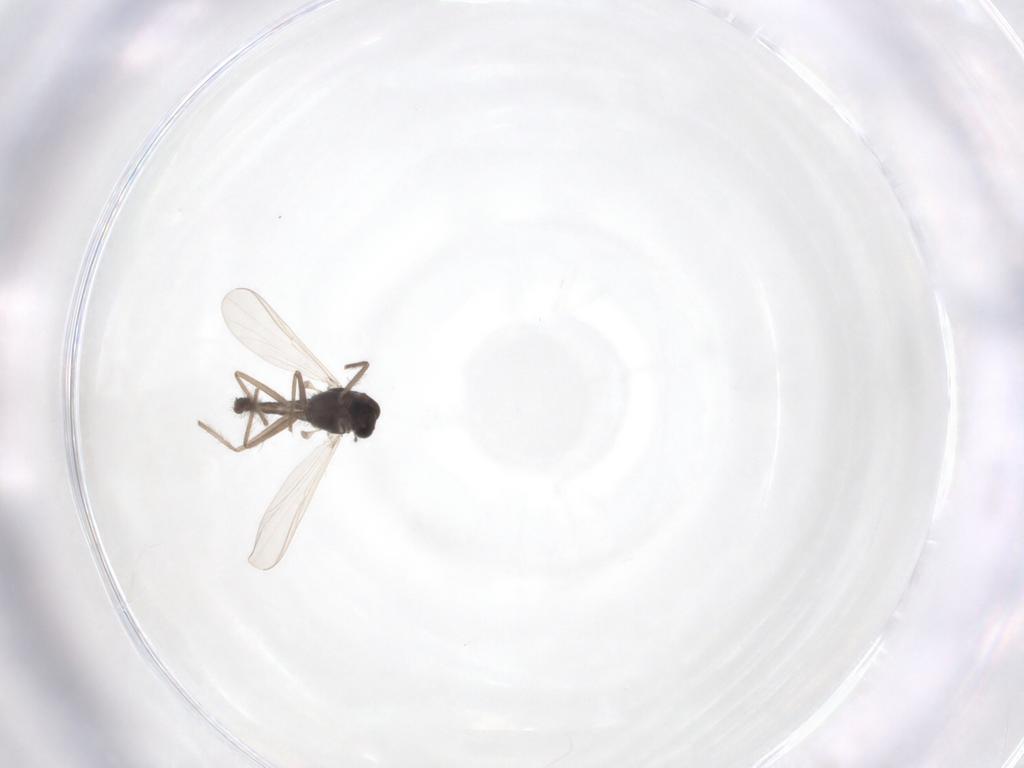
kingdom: Animalia
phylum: Arthropoda
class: Insecta
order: Diptera
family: Chironomidae
